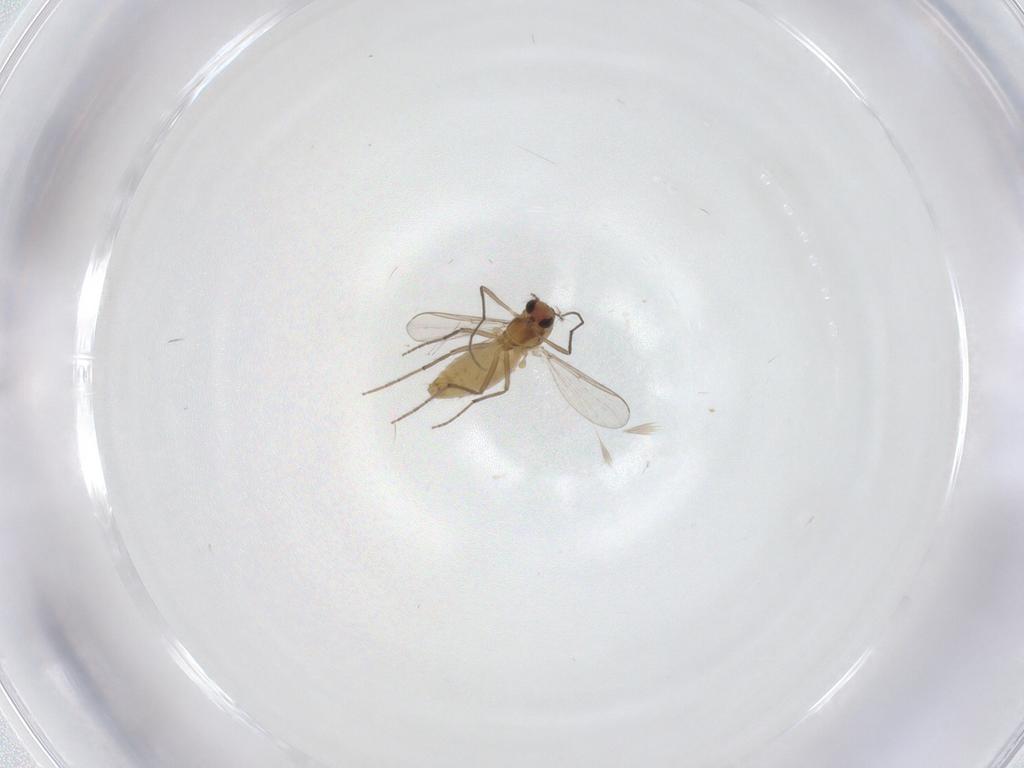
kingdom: Animalia
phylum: Arthropoda
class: Insecta
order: Diptera
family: Chironomidae
